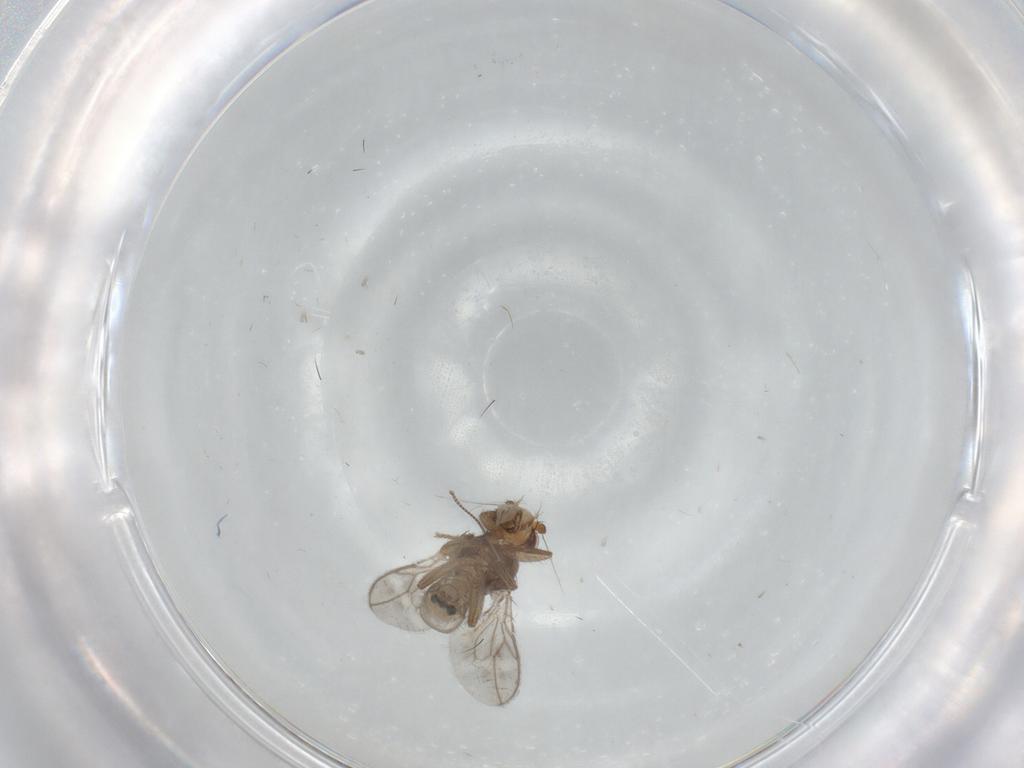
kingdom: Animalia
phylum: Arthropoda
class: Insecta
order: Diptera
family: Sphaeroceridae
